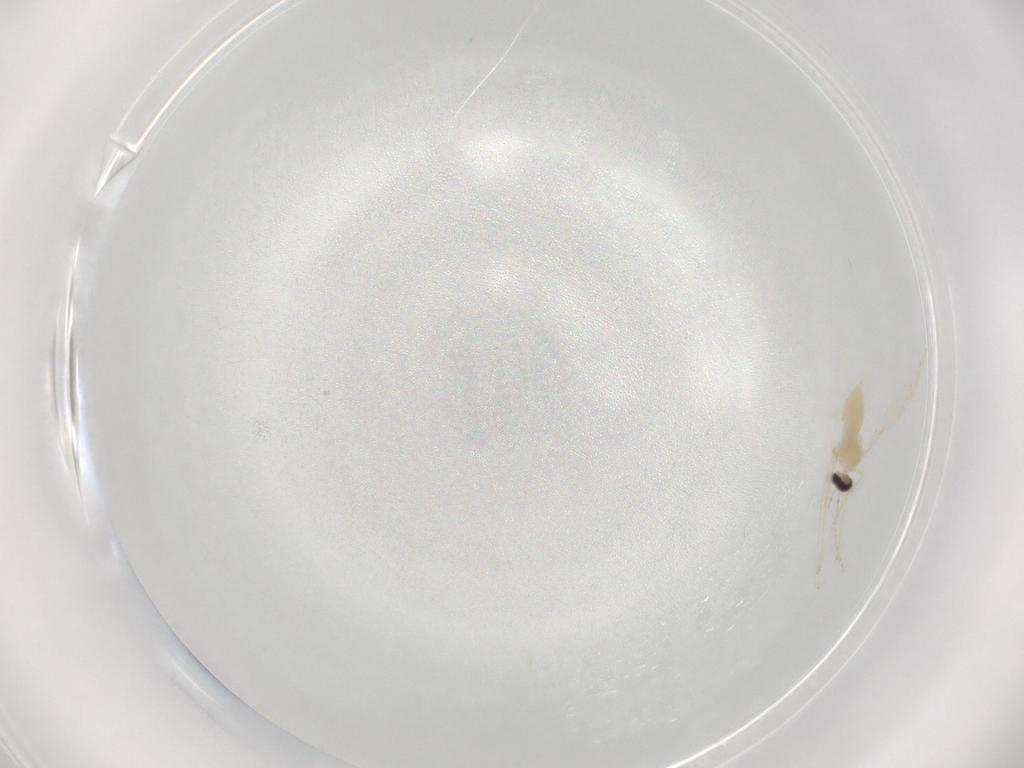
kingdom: Animalia
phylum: Arthropoda
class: Insecta
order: Diptera
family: Cecidomyiidae
